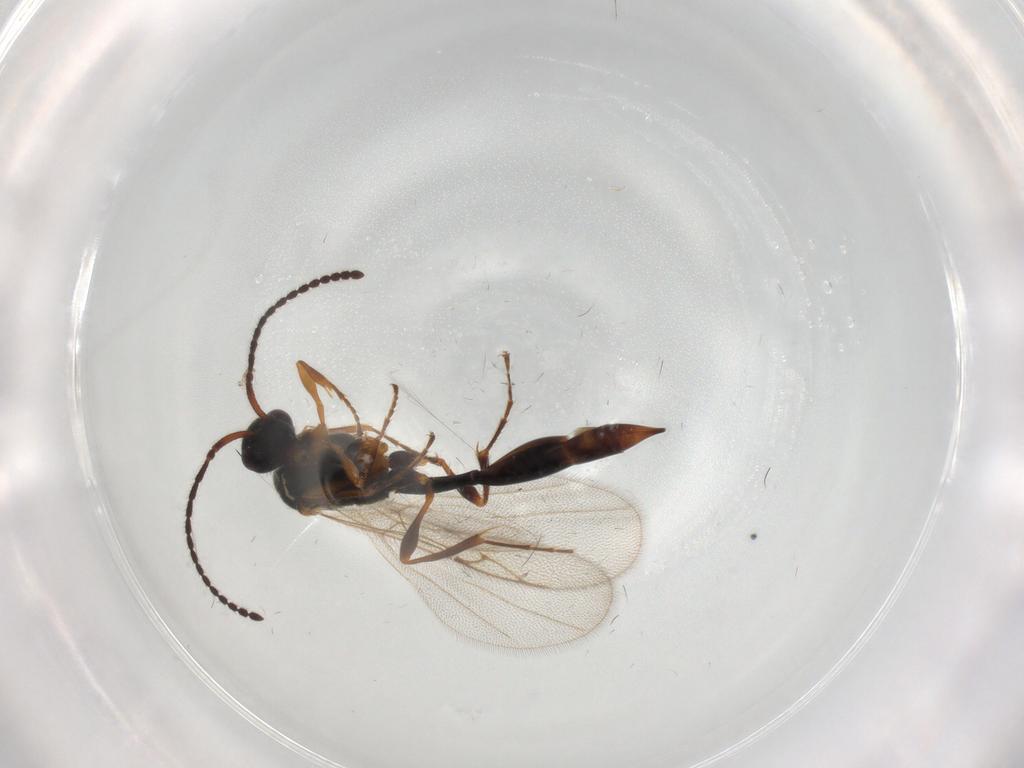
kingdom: Animalia
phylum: Arthropoda
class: Insecta
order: Hymenoptera
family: Diapriidae
